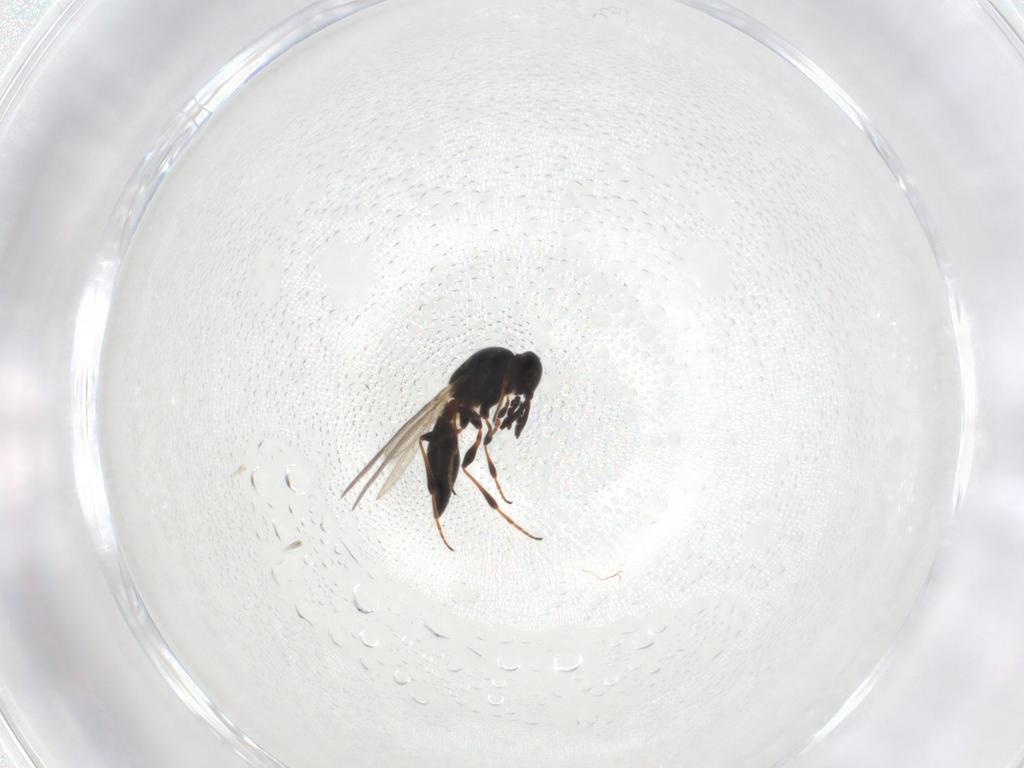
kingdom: Animalia
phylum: Arthropoda
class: Insecta
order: Hymenoptera
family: Platygastridae
